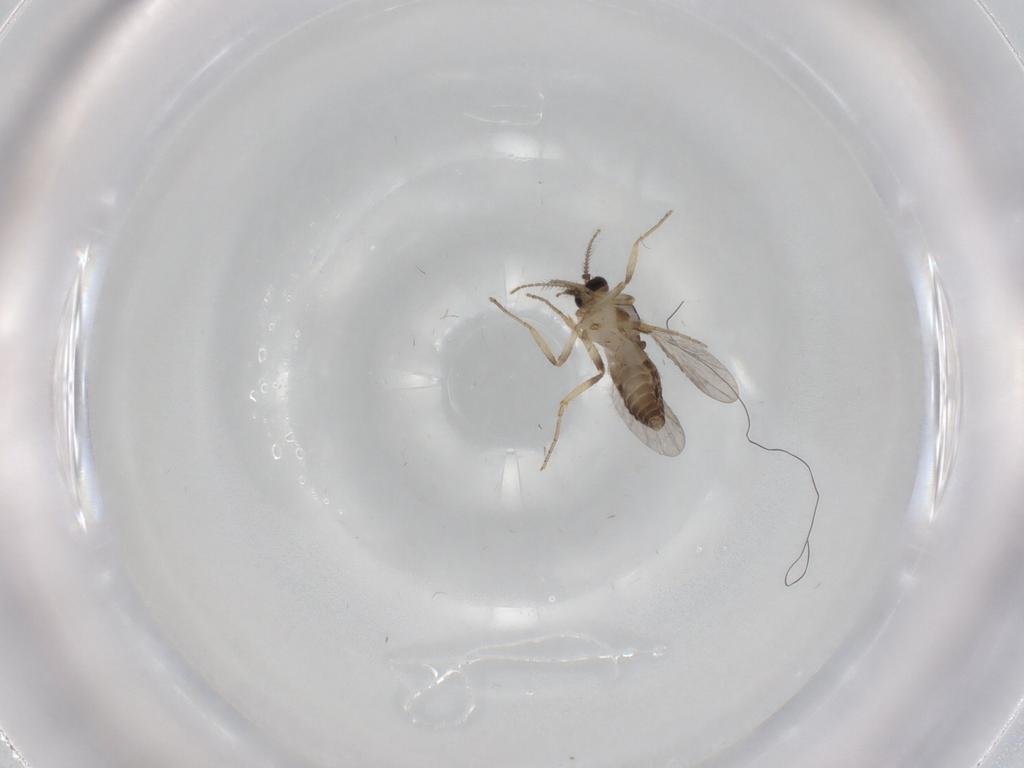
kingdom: Animalia
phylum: Arthropoda
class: Insecta
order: Diptera
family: Ceratopogonidae
